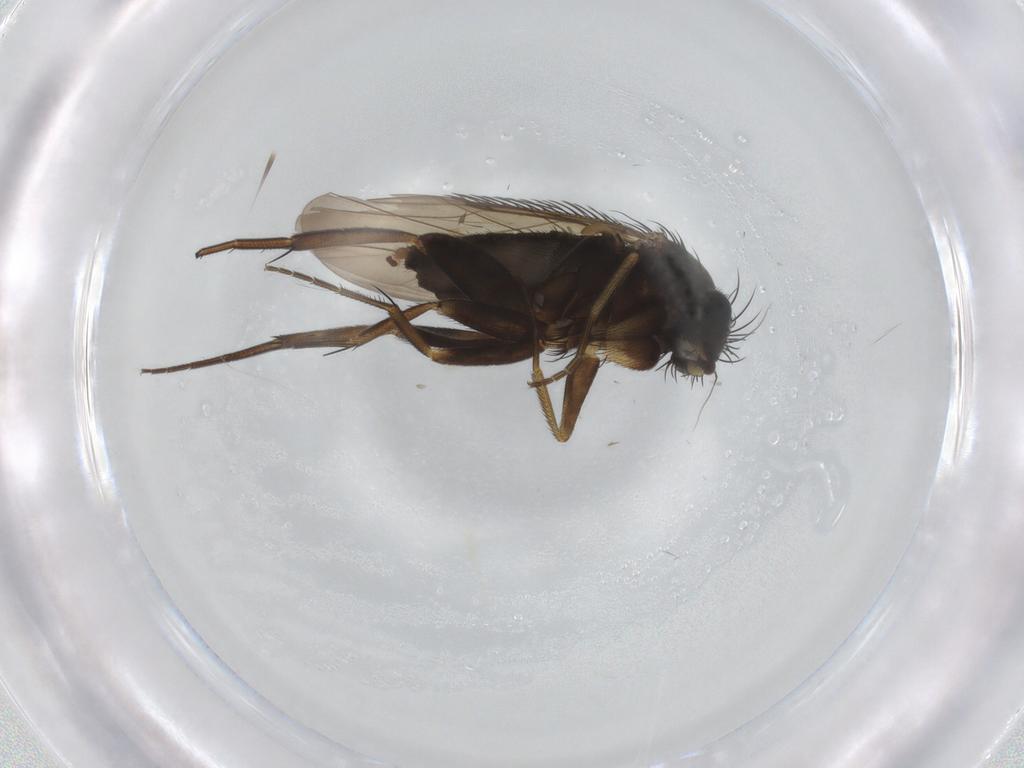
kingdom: Animalia
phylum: Arthropoda
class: Insecta
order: Diptera
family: Phoridae
